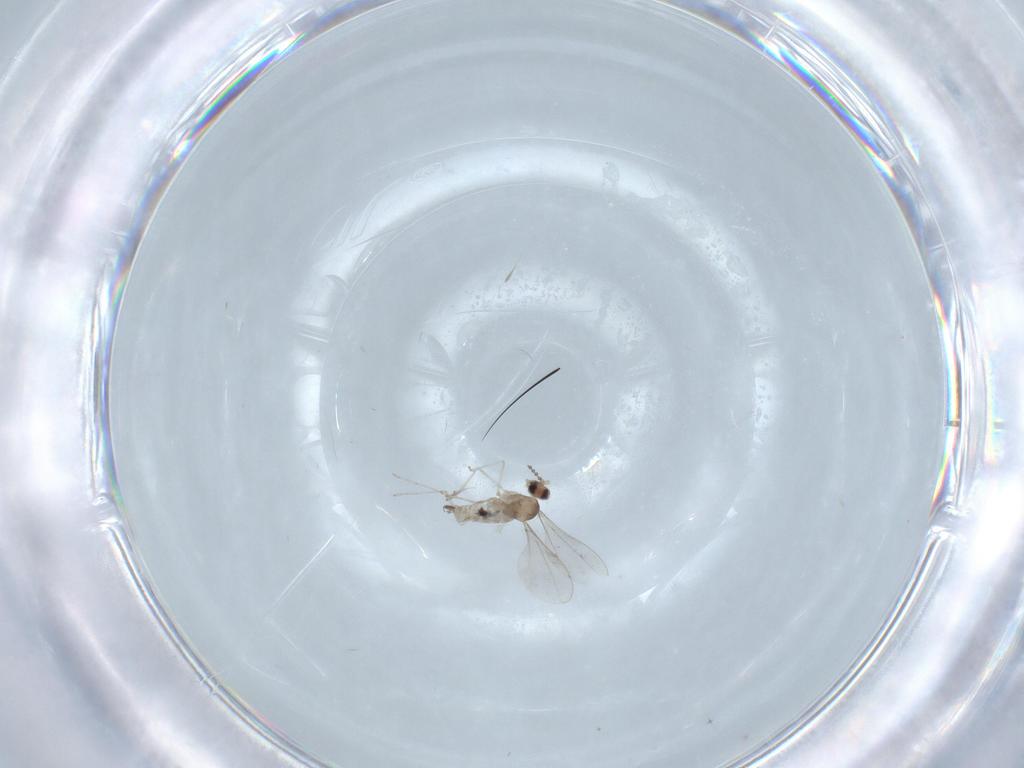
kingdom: Animalia
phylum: Arthropoda
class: Insecta
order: Diptera
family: Cecidomyiidae
